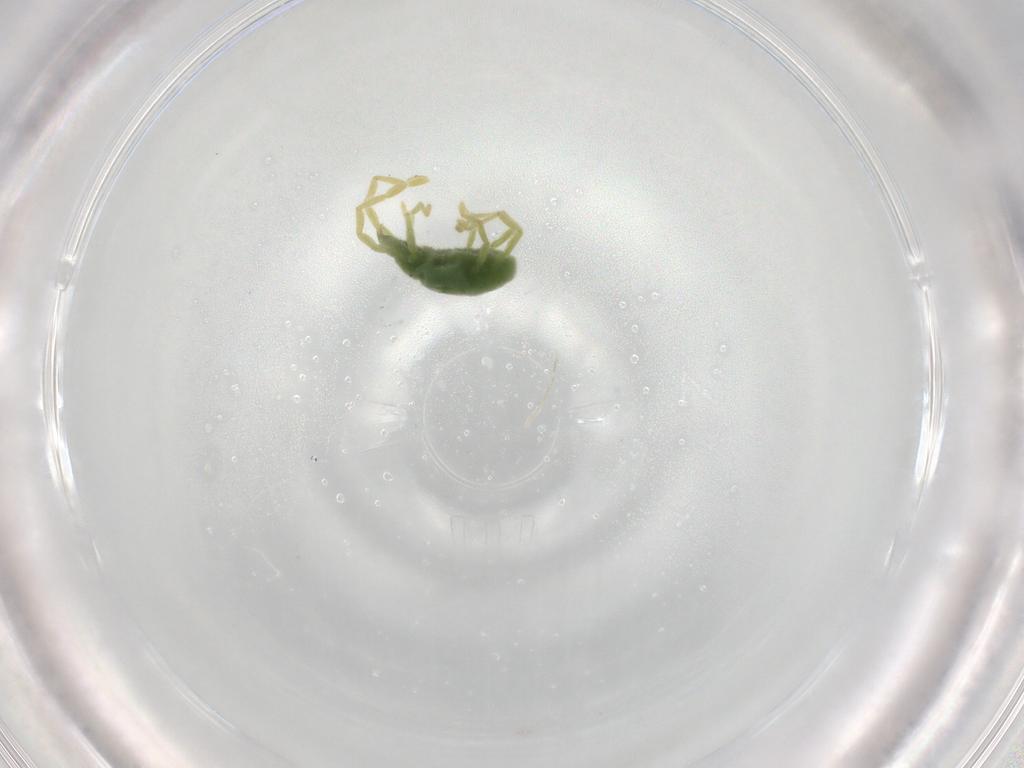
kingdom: Animalia
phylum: Arthropoda
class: Arachnida
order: Trombidiformes
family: Erythraeidae
